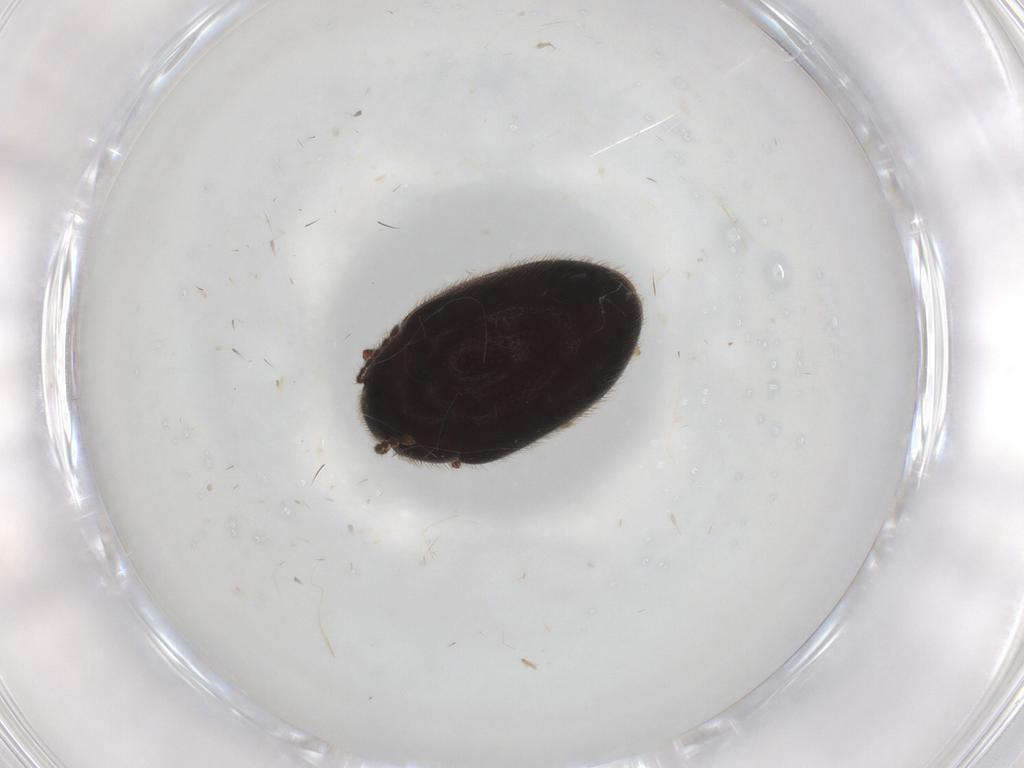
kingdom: Animalia
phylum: Arthropoda
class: Insecta
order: Coleoptera
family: Limnichidae
